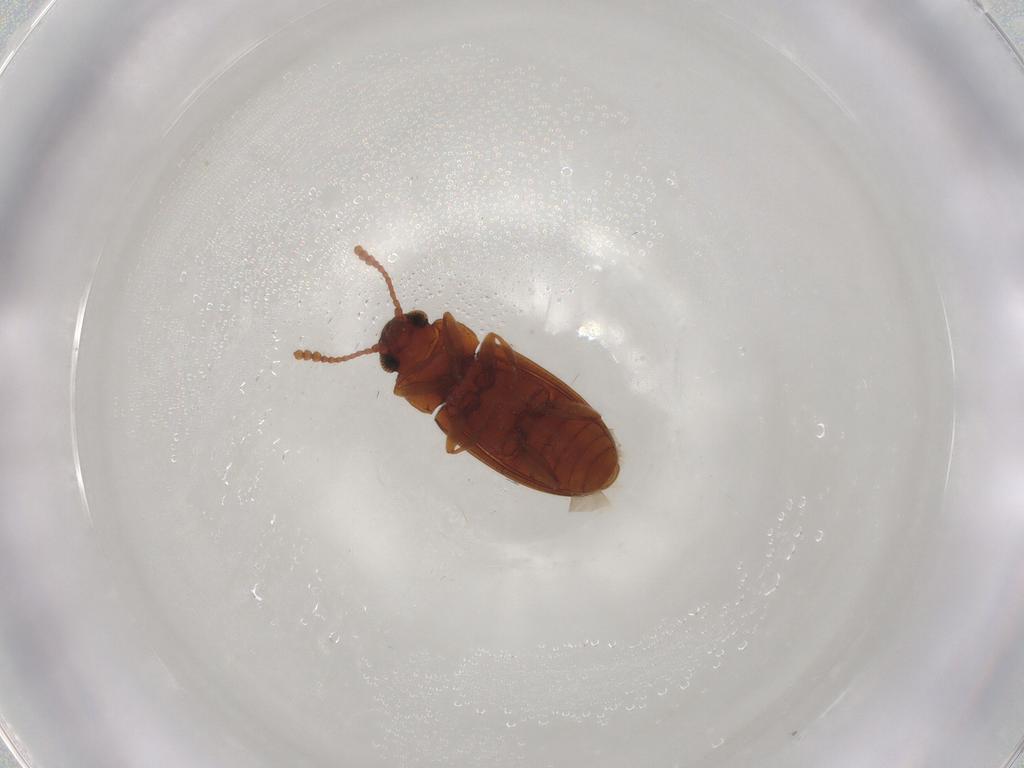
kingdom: Animalia
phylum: Arthropoda
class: Insecta
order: Coleoptera
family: Erotylidae
